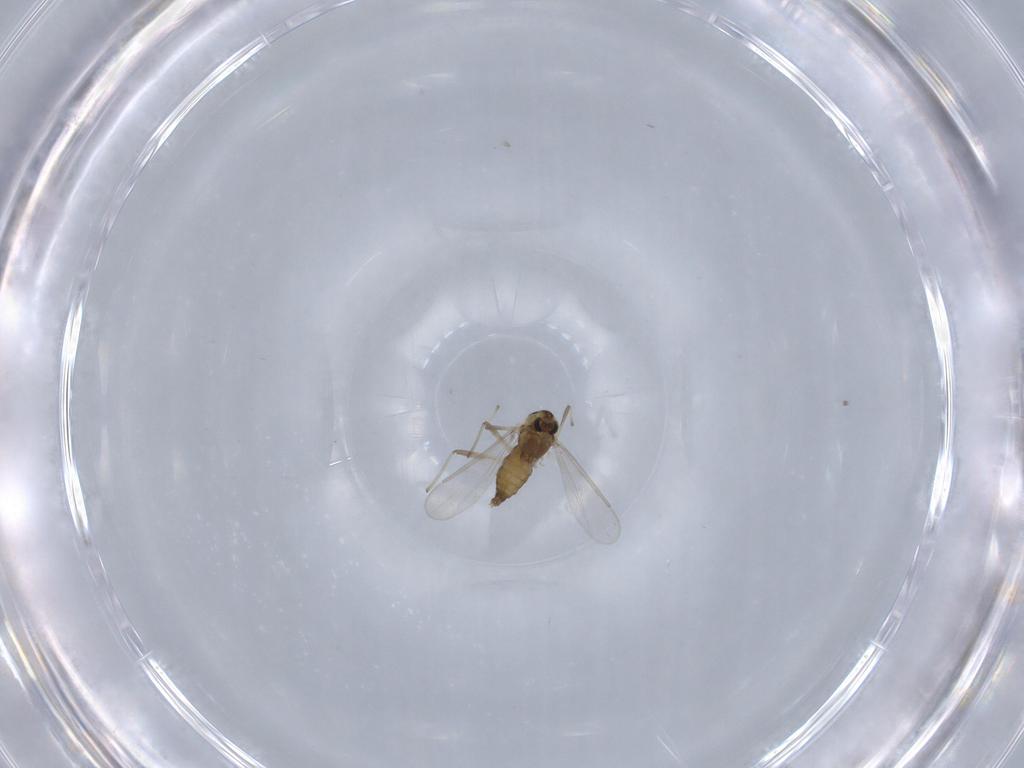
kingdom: Animalia
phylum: Arthropoda
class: Insecta
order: Diptera
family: Chironomidae
